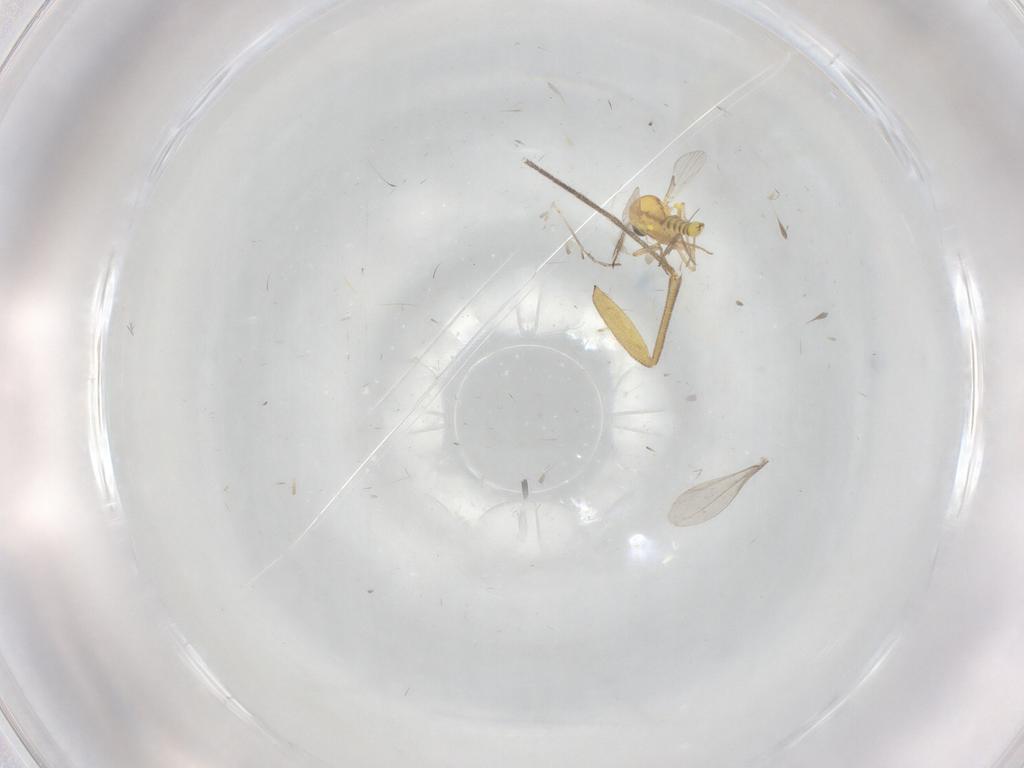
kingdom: Animalia
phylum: Arthropoda
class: Insecta
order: Diptera
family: Ceratopogonidae
